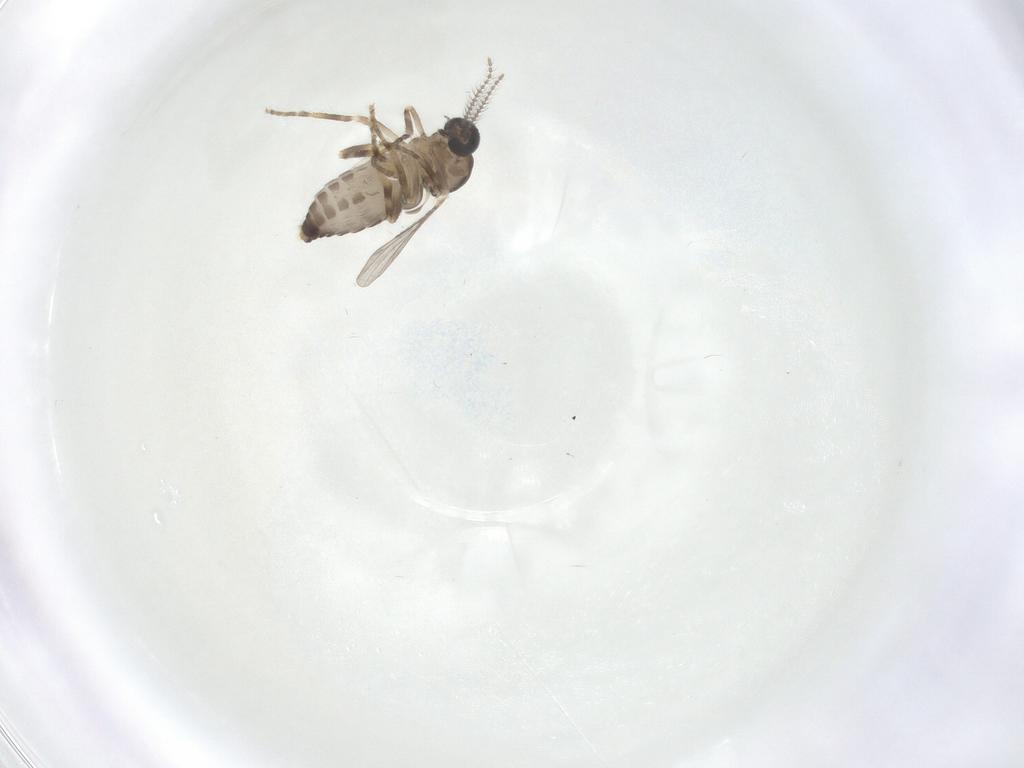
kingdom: Animalia
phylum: Arthropoda
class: Insecta
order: Diptera
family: Ceratopogonidae
